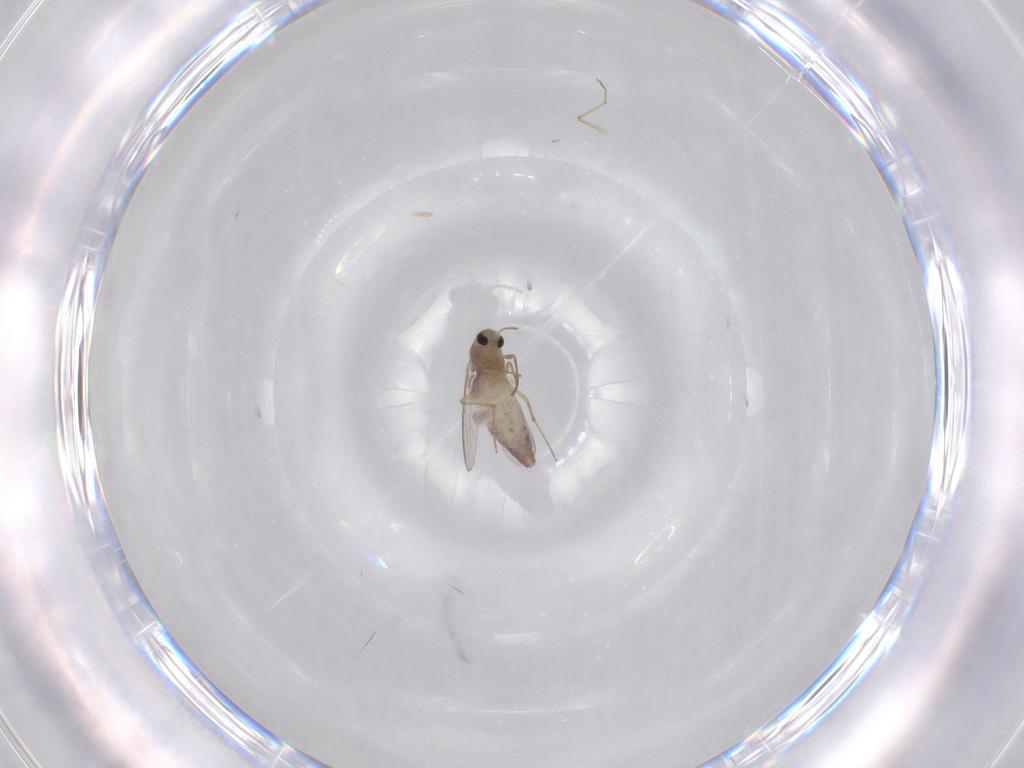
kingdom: Animalia
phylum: Arthropoda
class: Insecta
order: Diptera
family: Chironomidae
